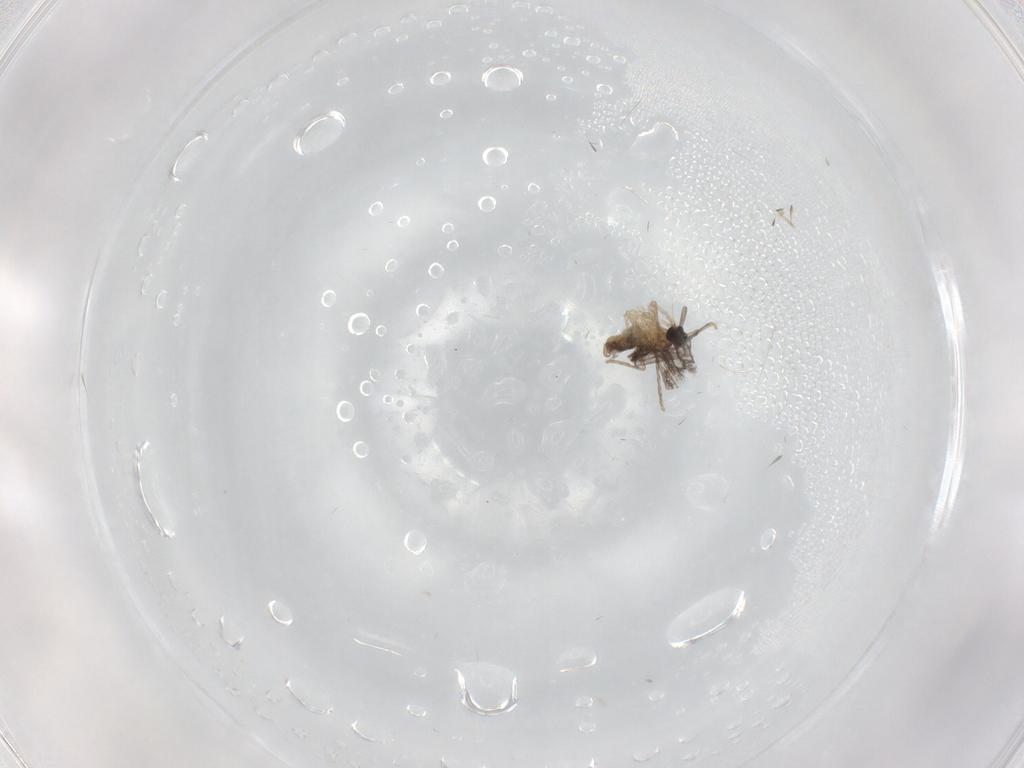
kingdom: Animalia
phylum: Arthropoda
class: Insecta
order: Diptera
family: Cecidomyiidae
